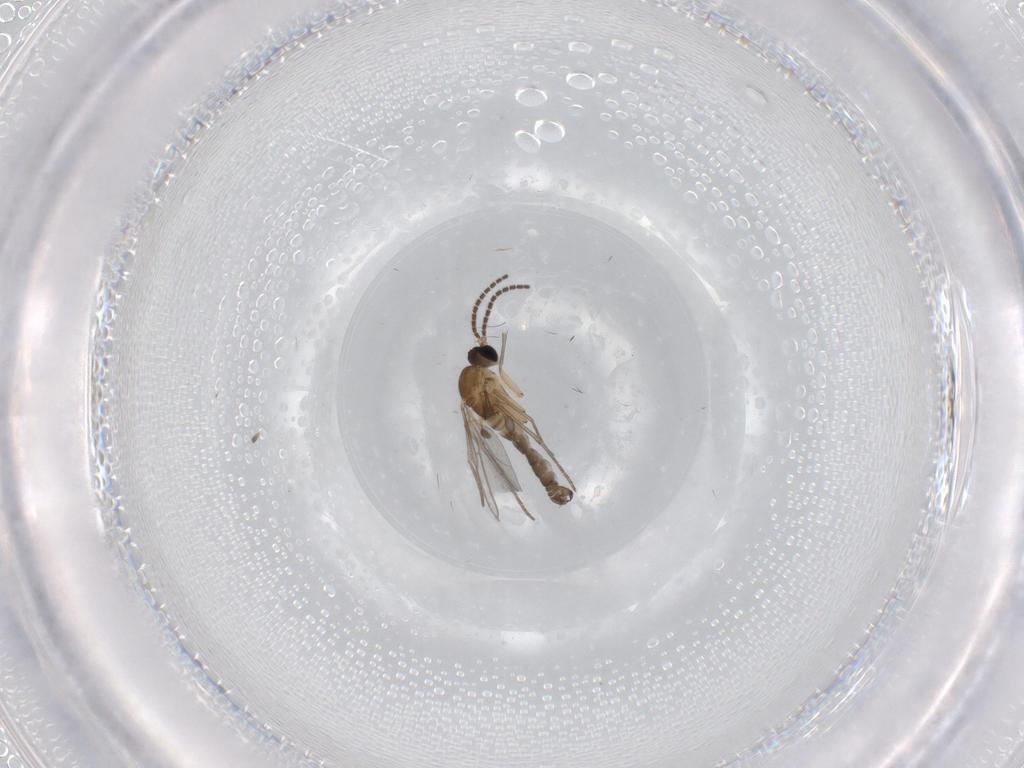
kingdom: Animalia
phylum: Arthropoda
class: Insecta
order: Diptera
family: Sciaridae
